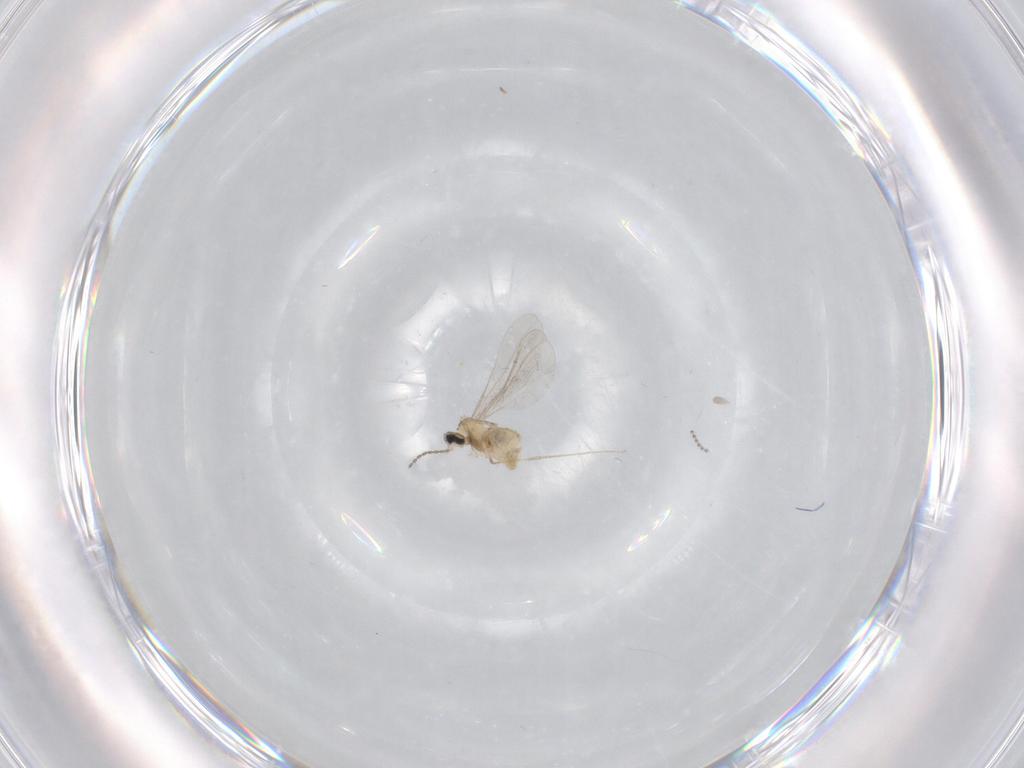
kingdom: Animalia
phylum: Arthropoda
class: Insecta
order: Diptera
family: Cecidomyiidae
